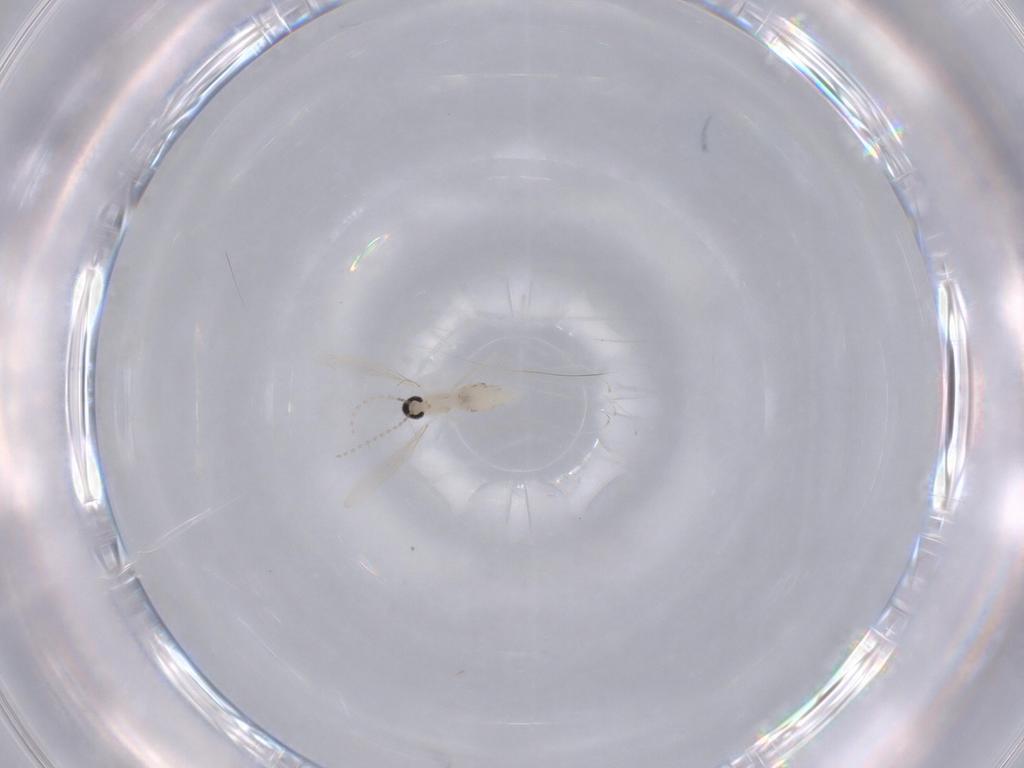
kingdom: Animalia
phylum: Arthropoda
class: Insecta
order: Diptera
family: Cecidomyiidae
